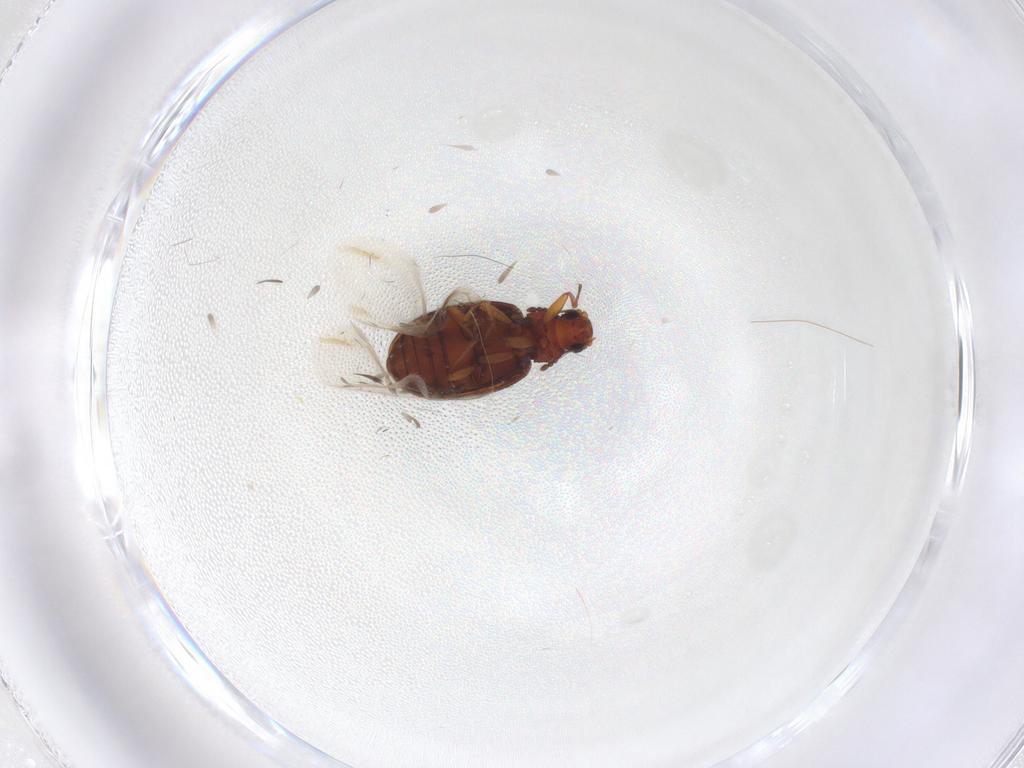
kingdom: Animalia
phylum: Arthropoda
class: Insecta
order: Coleoptera
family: Latridiidae
